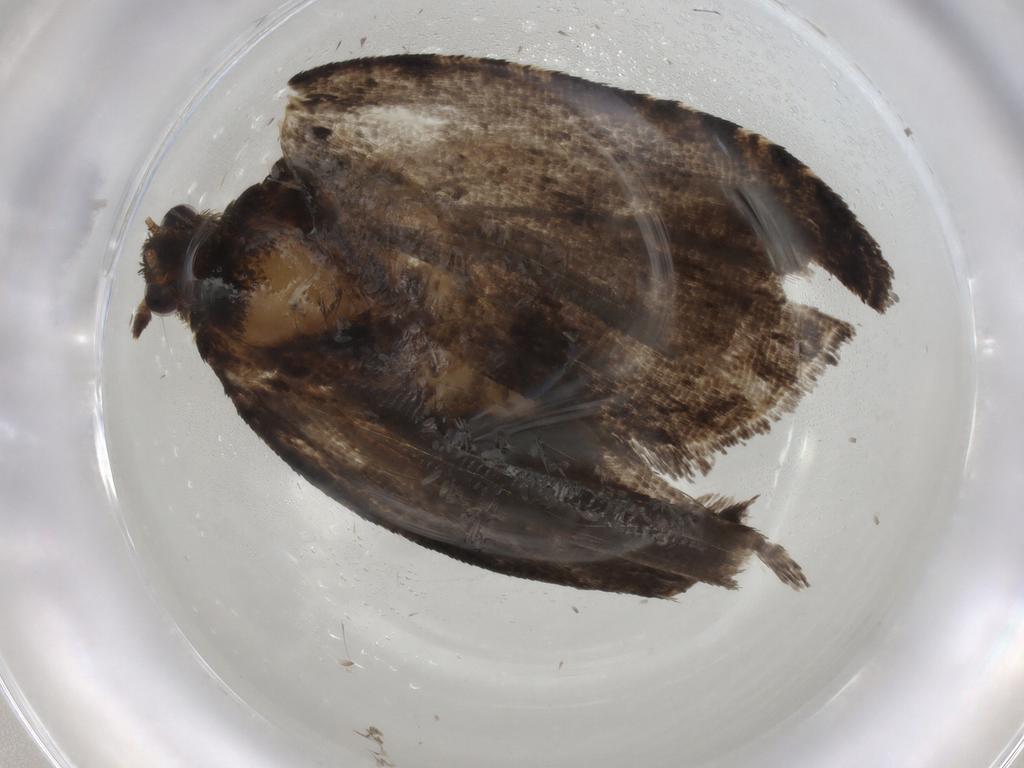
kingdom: Animalia
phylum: Arthropoda
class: Insecta
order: Lepidoptera
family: Tortricidae
